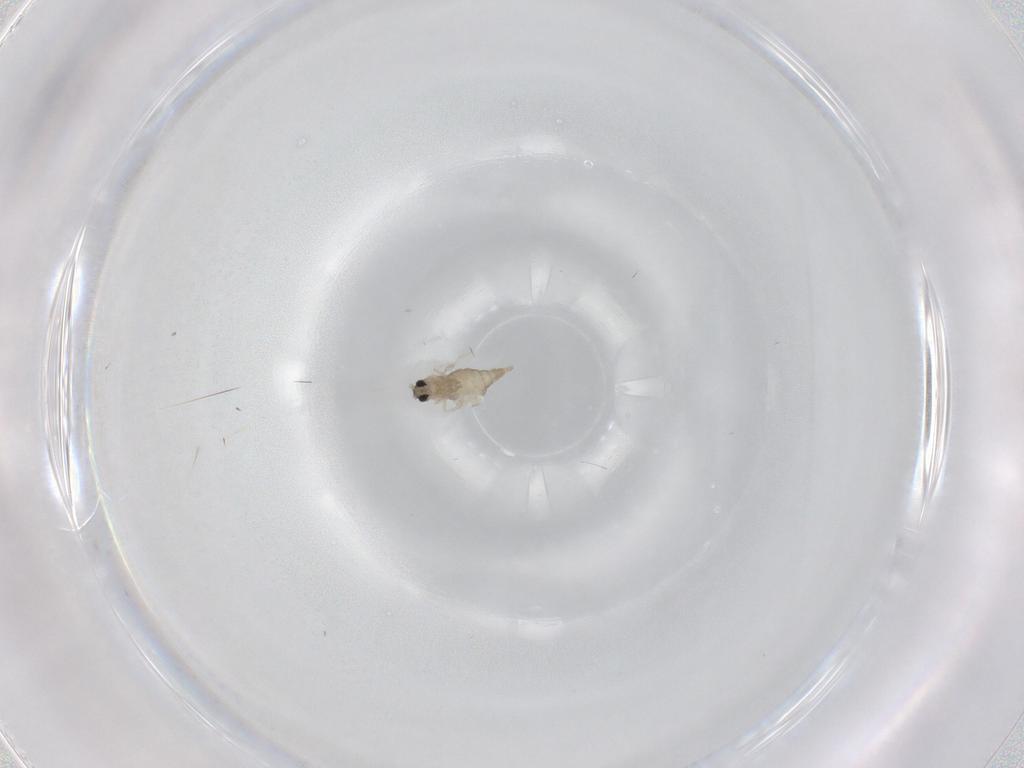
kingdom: Animalia
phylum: Arthropoda
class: Insecta
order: Diptera
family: Cecidomyiidae
